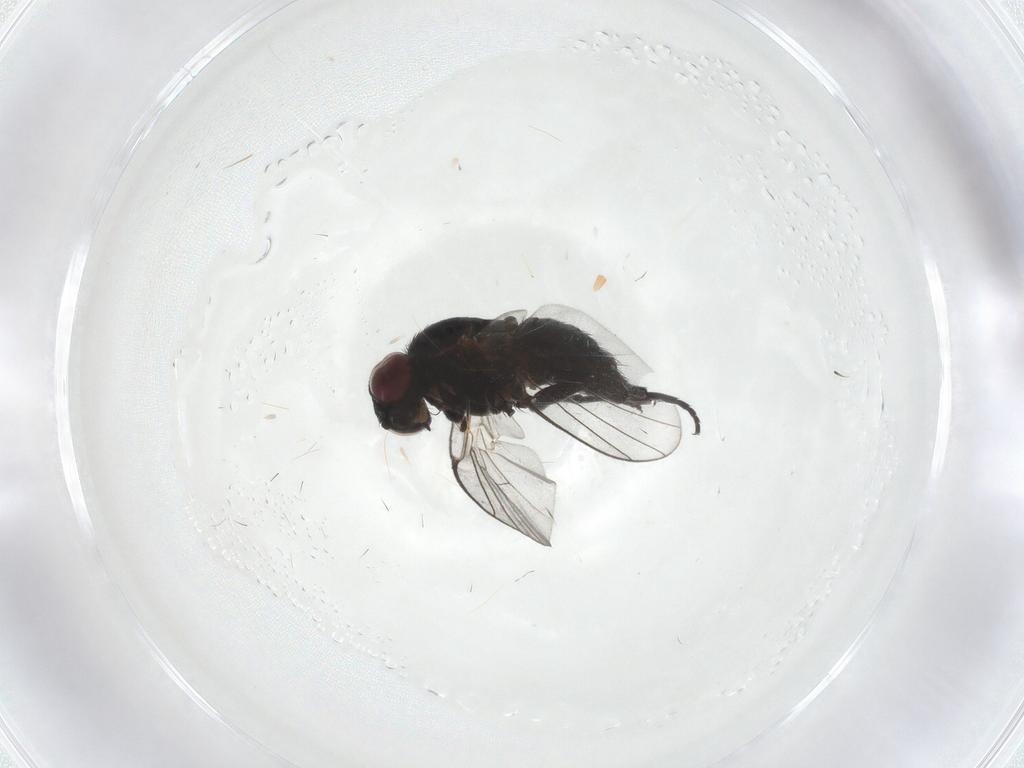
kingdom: Animalia
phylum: Arthropoda
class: Insecta
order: Diptera
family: Agromyzidae
